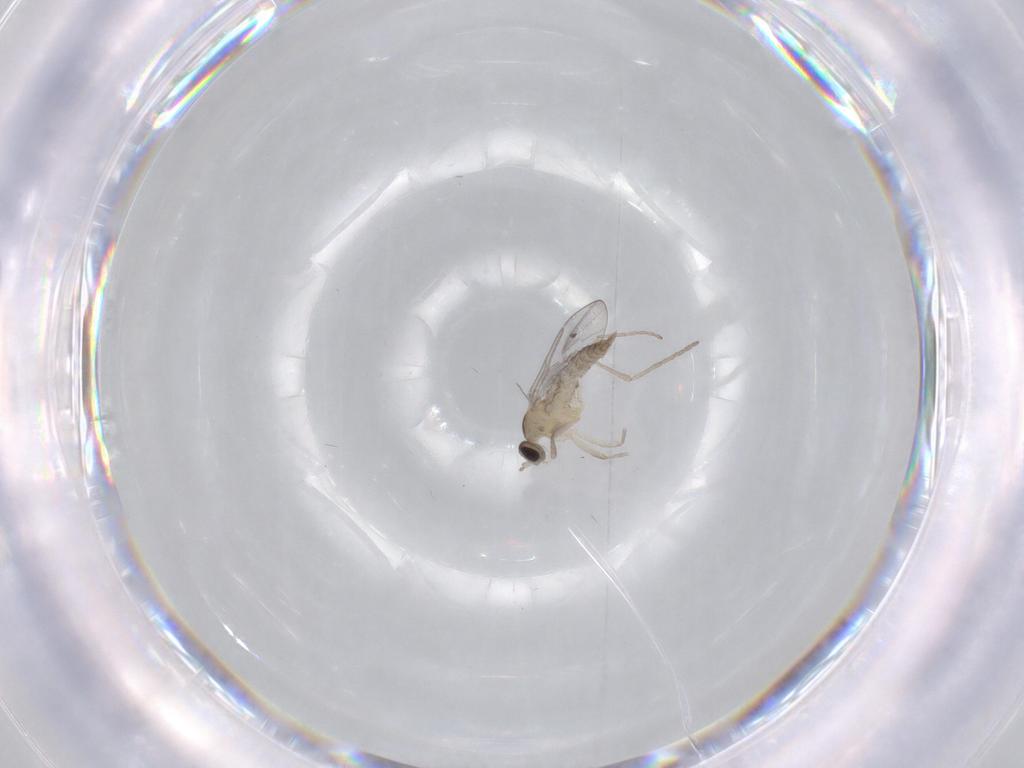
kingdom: Animalia
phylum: Arthropoda
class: Insecta
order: Diptera
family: Cecidomyiidae
